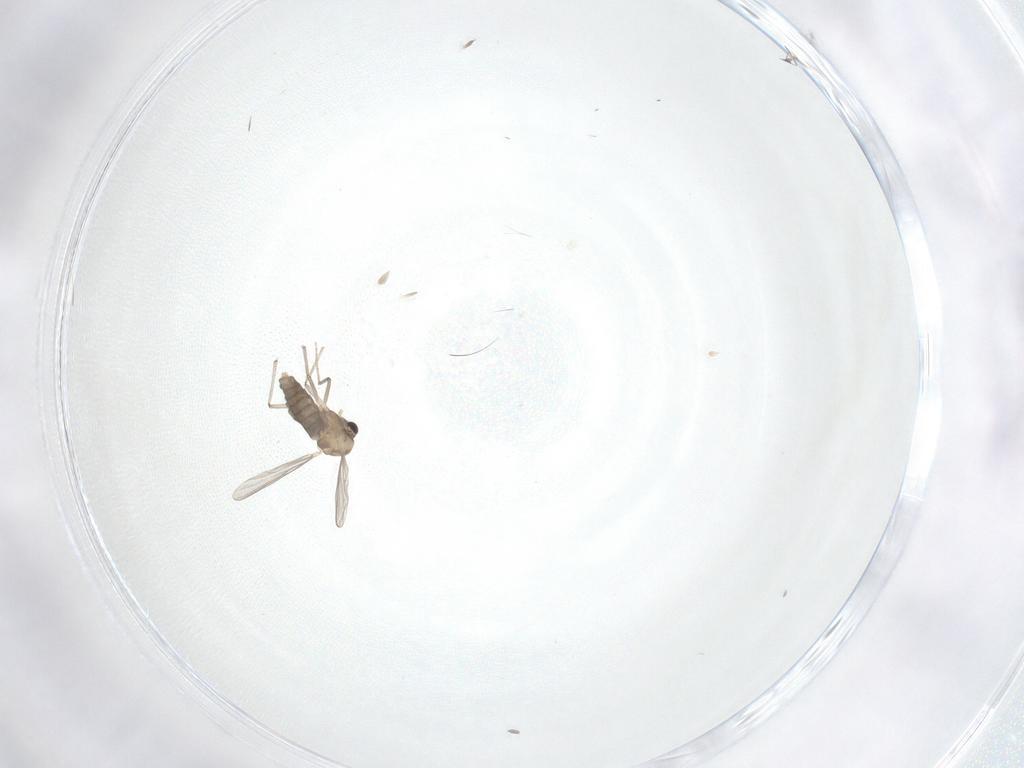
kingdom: Animalia
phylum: Arthropoda
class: Insecta
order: Diptera
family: Chironomidae
